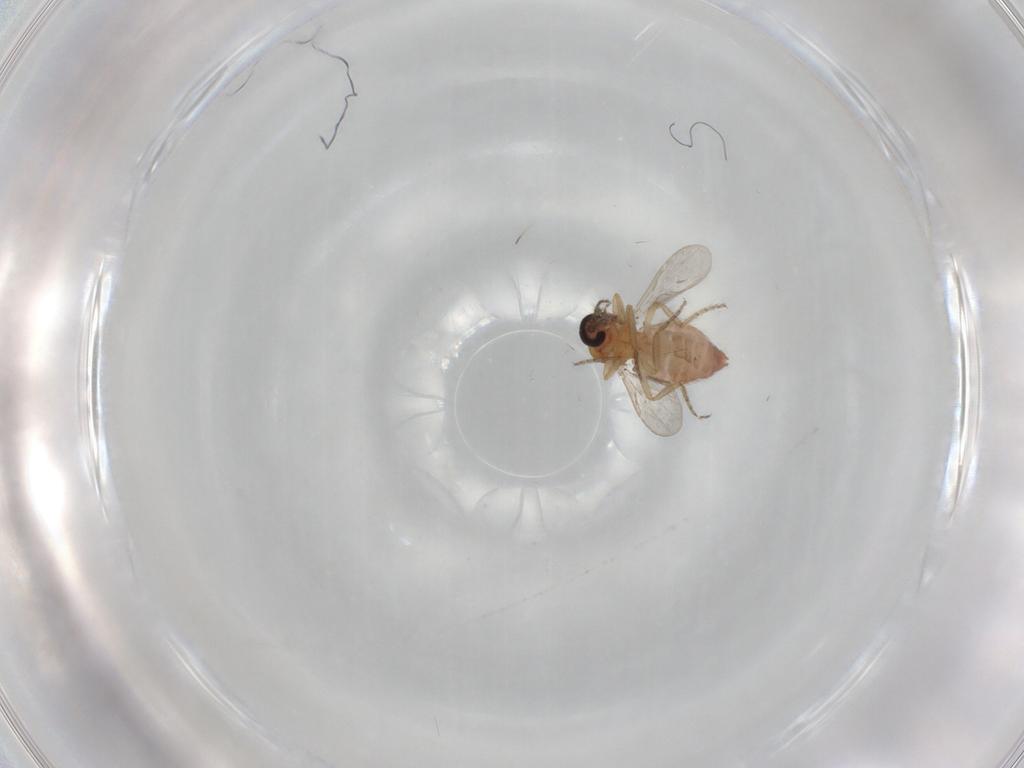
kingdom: Animalia
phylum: Arthropoda
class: Insecta
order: Diptera
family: Ceratopogonidae
